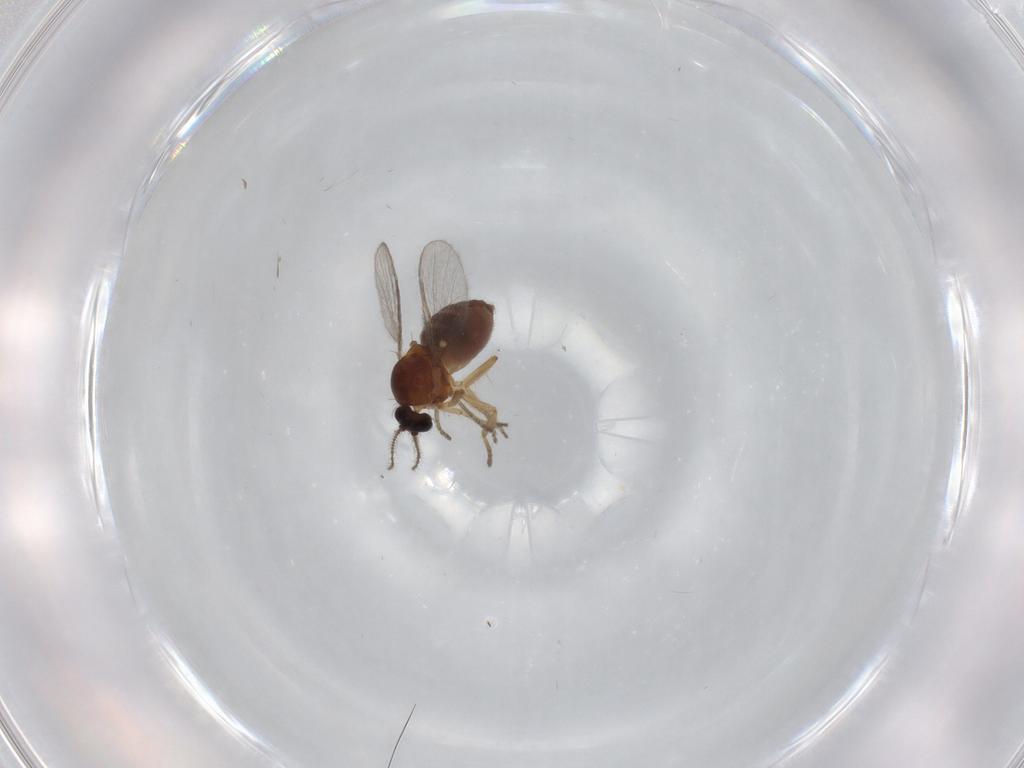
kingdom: Animalia
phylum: Arthropoda
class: Insecta
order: Diptera
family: Ceratopogonidae
